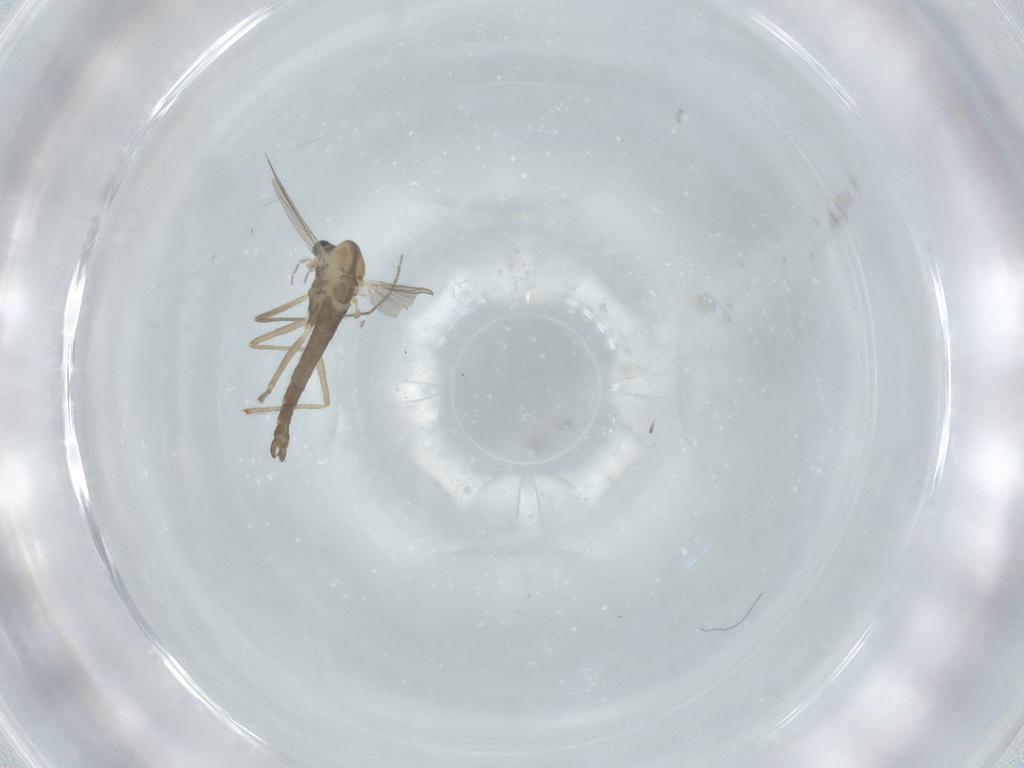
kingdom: Animalia
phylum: Arthropoda
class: Insecta
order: Diptera
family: Chironomidae
